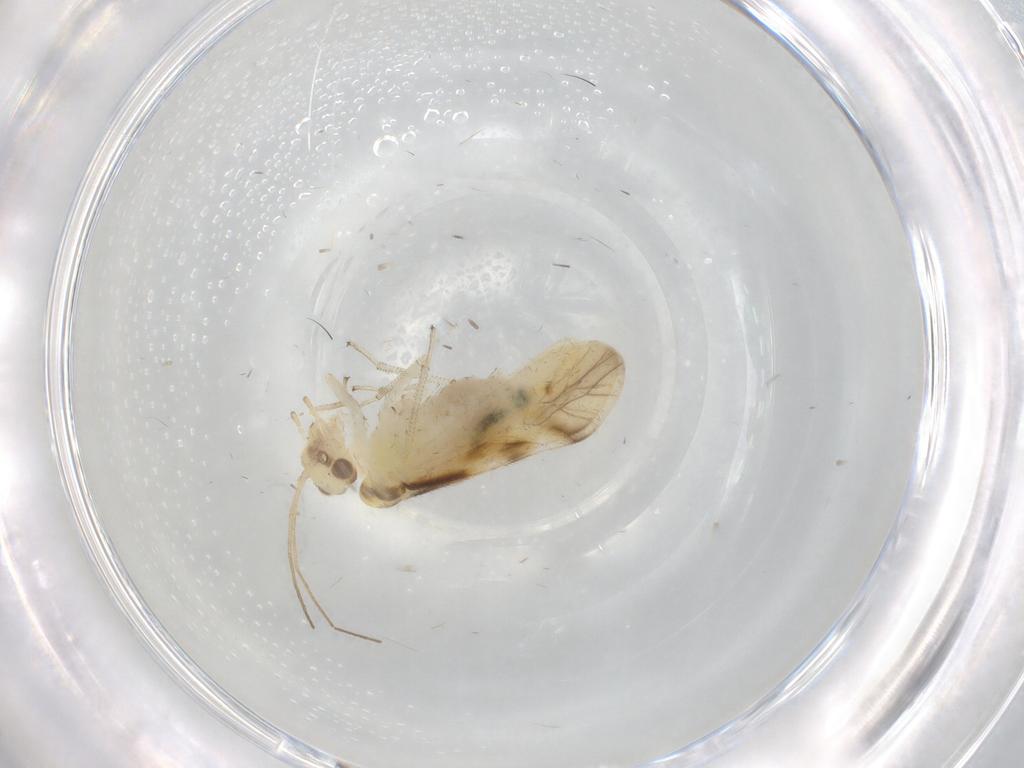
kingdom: Animalia
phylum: Arthropoda
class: Insecta
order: Psocodea
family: Caeciliusidae
